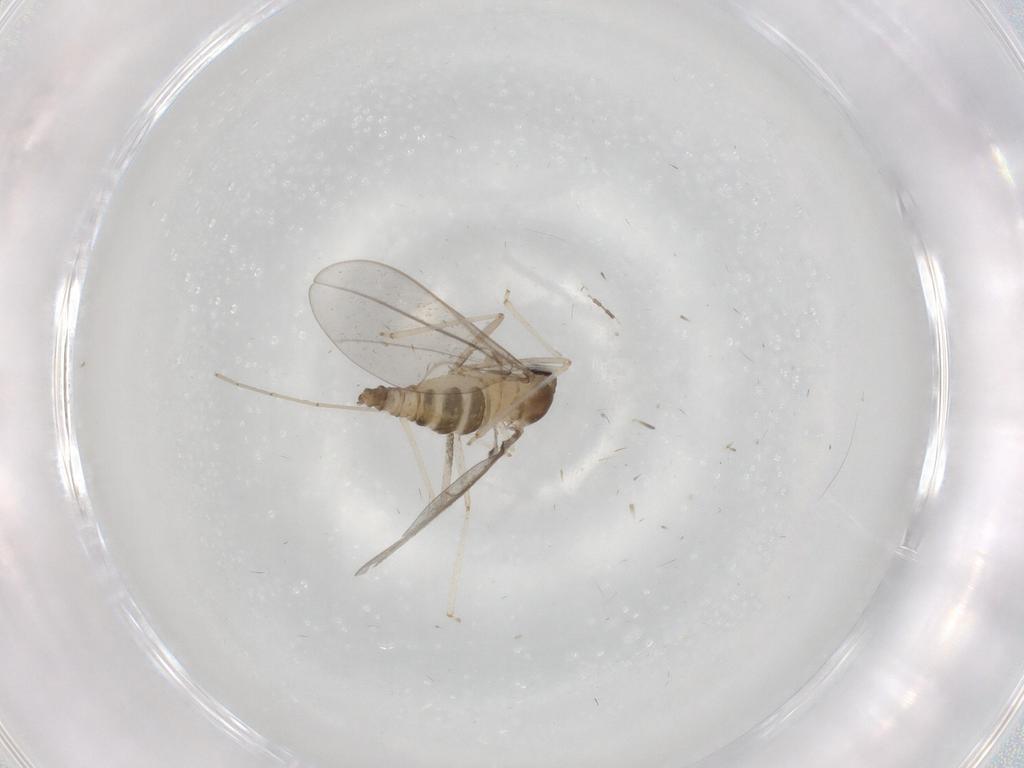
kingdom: Animalia
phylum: Arthropoda
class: Insecta
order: Diptera
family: Cecidomyiidae
